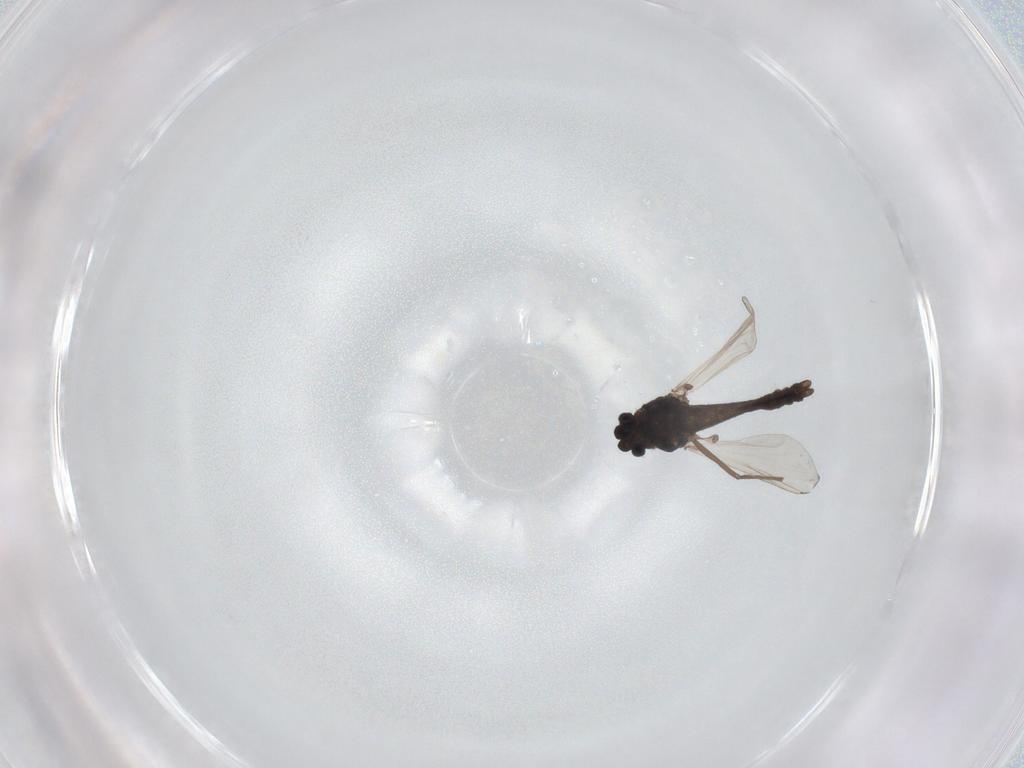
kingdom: Animalia
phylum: Arthropoda
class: Insecta
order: Diptera
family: Chironomidae
